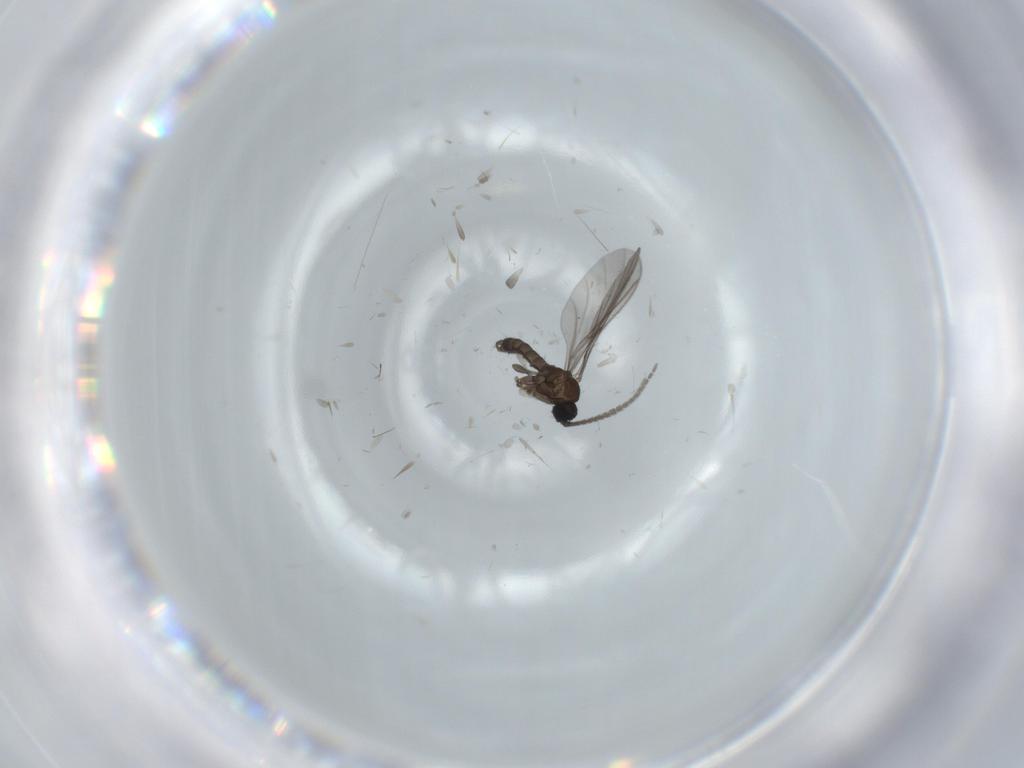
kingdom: Animalia
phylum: Arthropoda
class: Insecta
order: Diptera
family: Sciaridae
